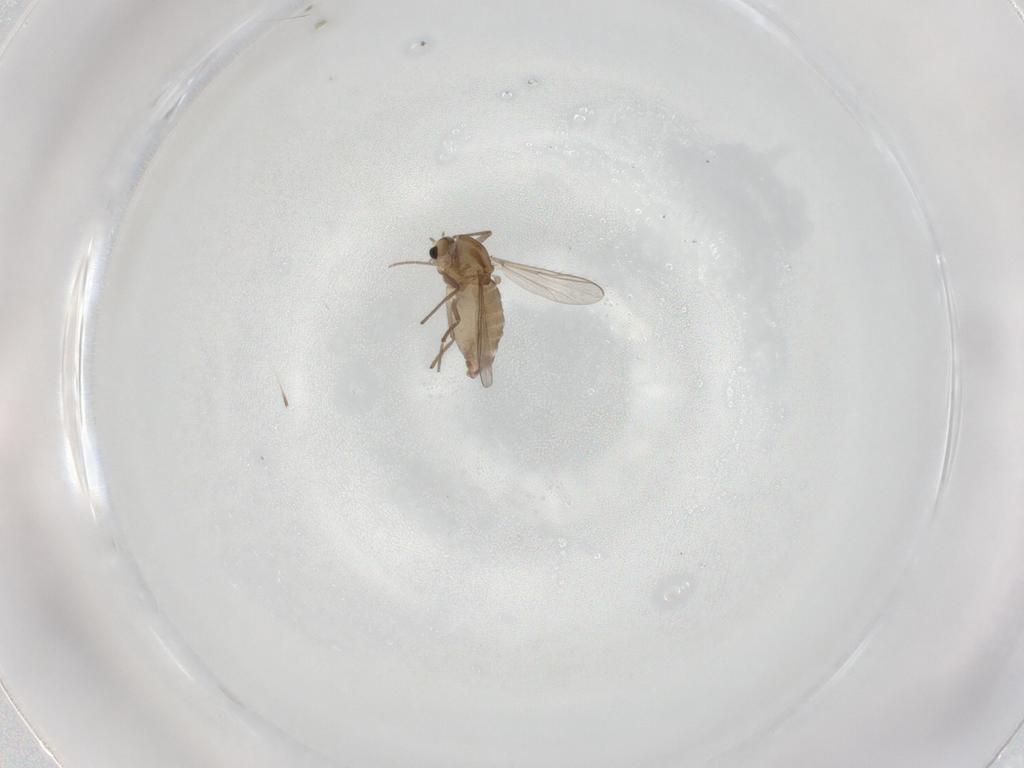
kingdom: Animalia
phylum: Arthropoda
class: Insecta
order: Diptera
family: Chironomidae
